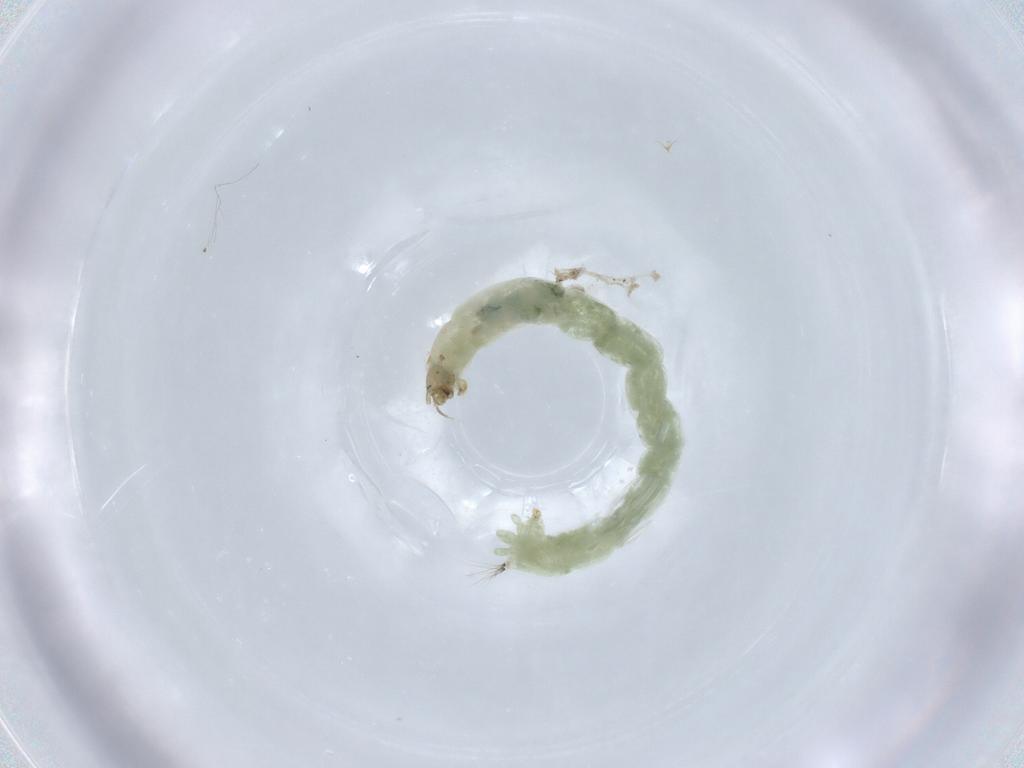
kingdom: Animalia
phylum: Arthropoda
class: Insecta
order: Diptera
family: Chironomidae
